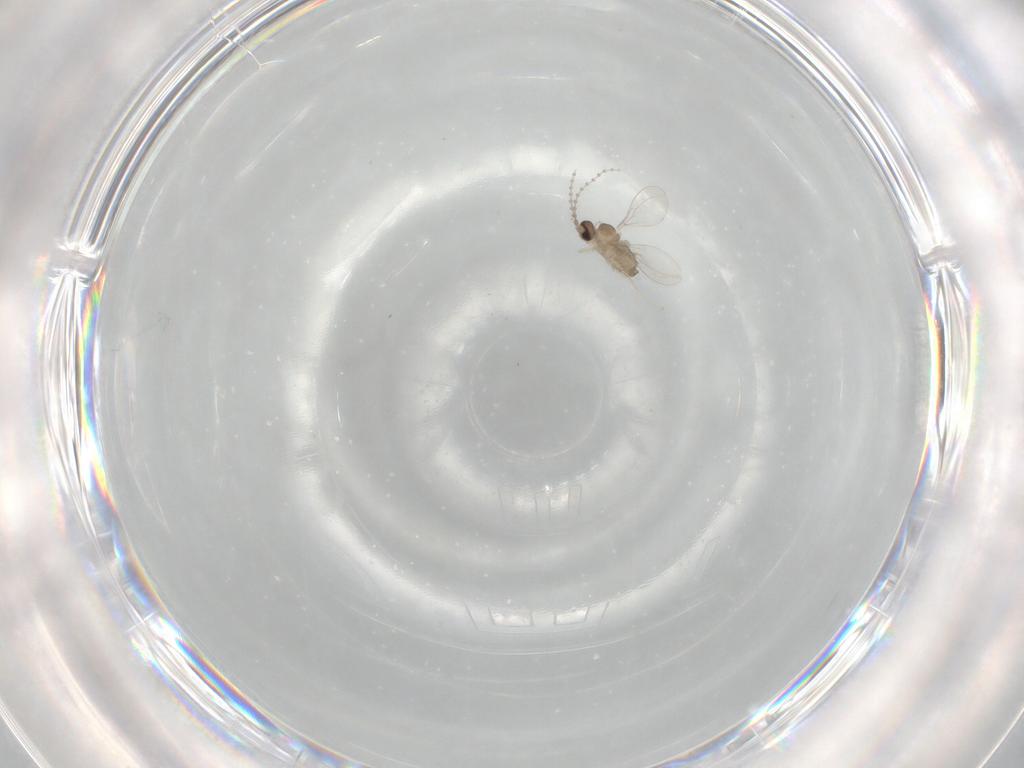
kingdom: Animalia
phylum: Arthropoda
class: Insecta
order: Diptera
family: Cecidomyiidae
